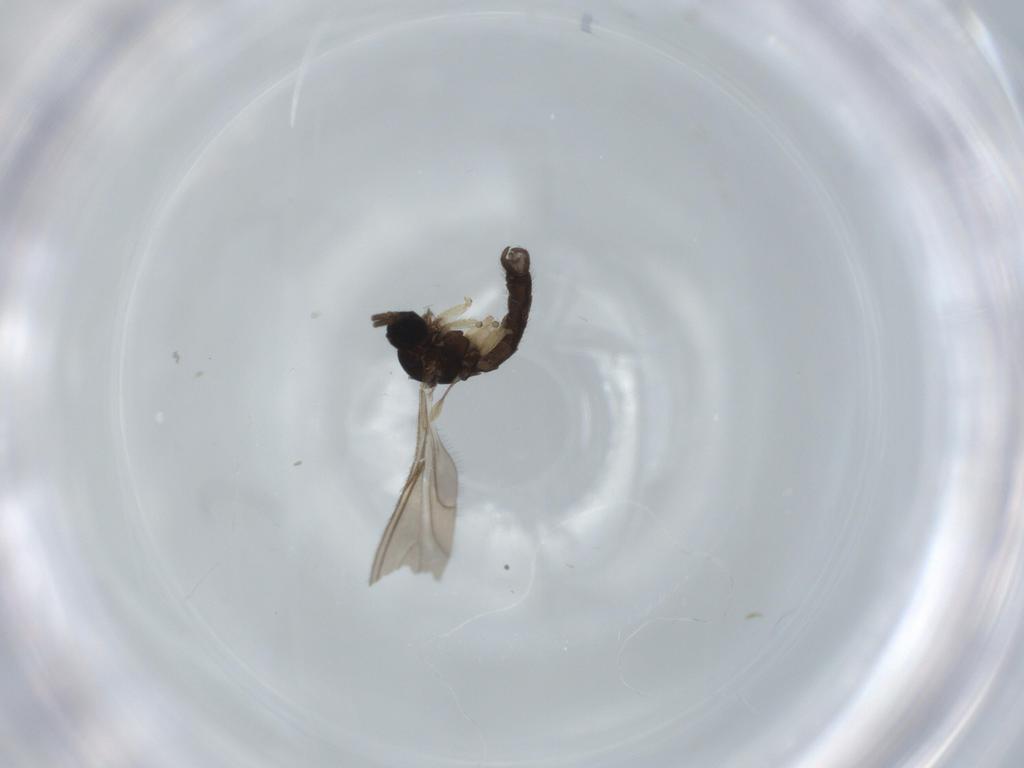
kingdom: Animalia
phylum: Arthropoda
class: Insecta
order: Diptera
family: Sciaridae
